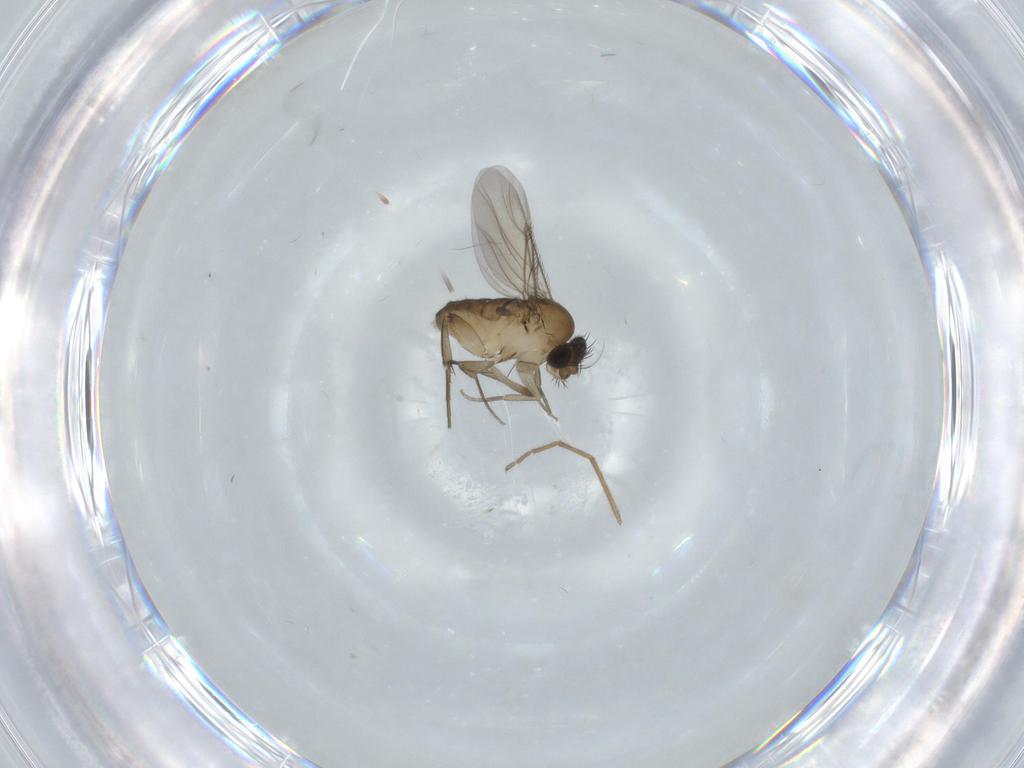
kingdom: Animalia
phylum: Arthropoda
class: Insecta
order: Diptera
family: Phoridae
